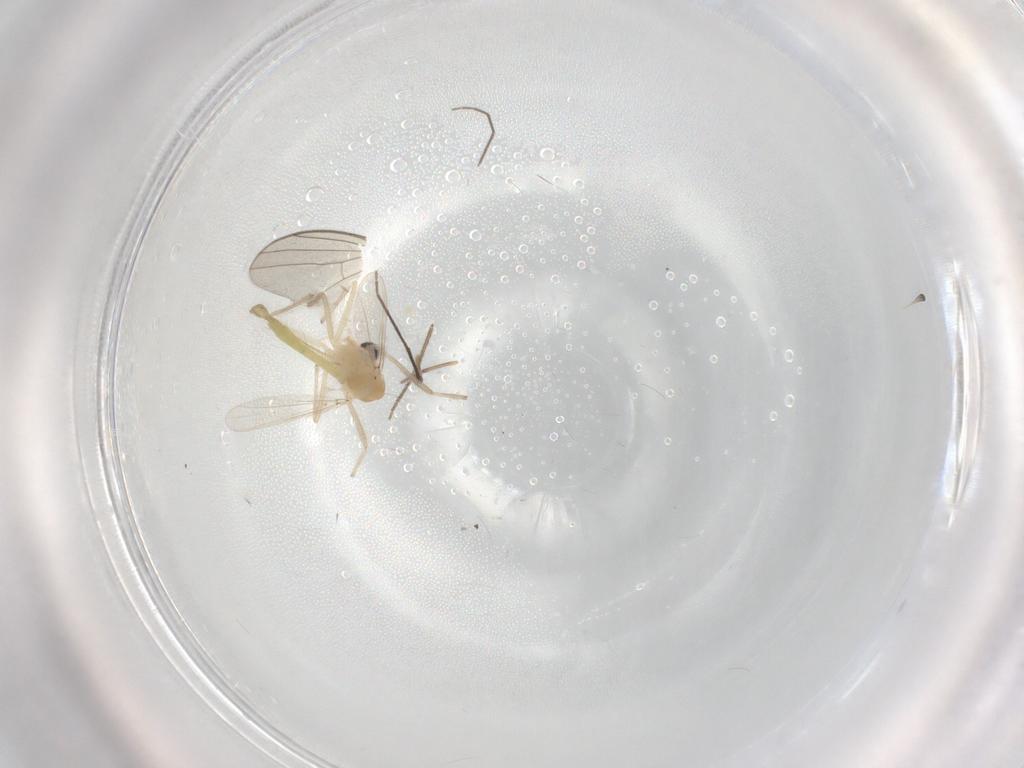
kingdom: Animalia
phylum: Arthropoda
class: Insecta
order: Diptera
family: Chironomidae
